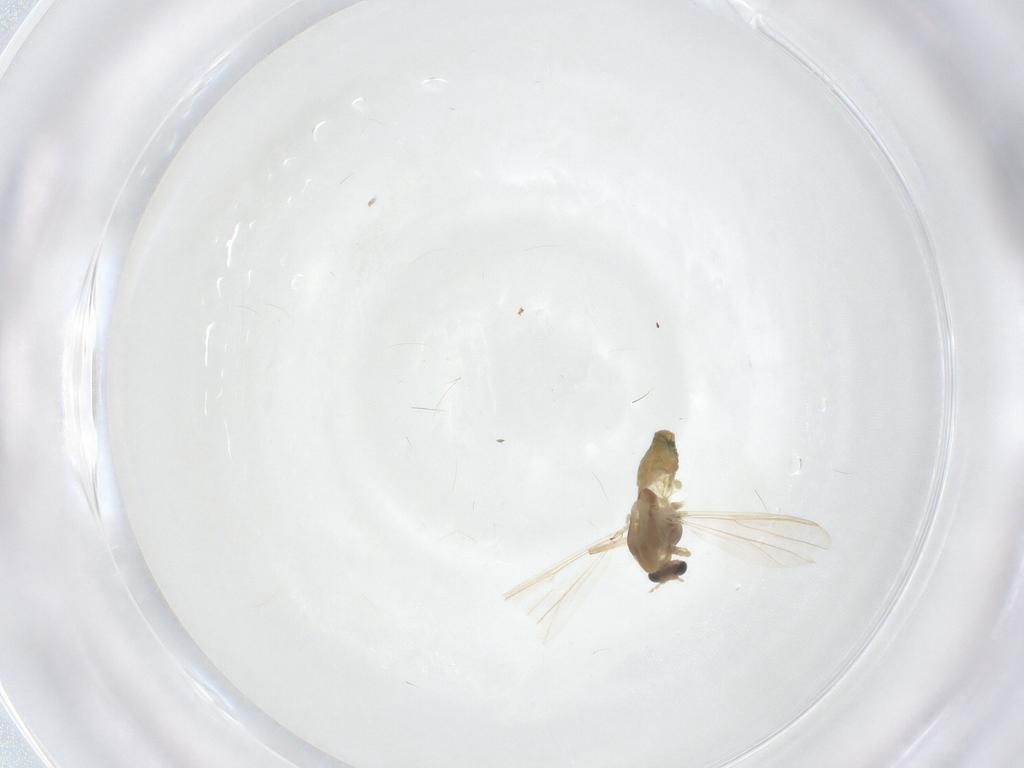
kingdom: Animalia
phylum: Arthropoda
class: Insecta
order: Diptera
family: Chironomidae
